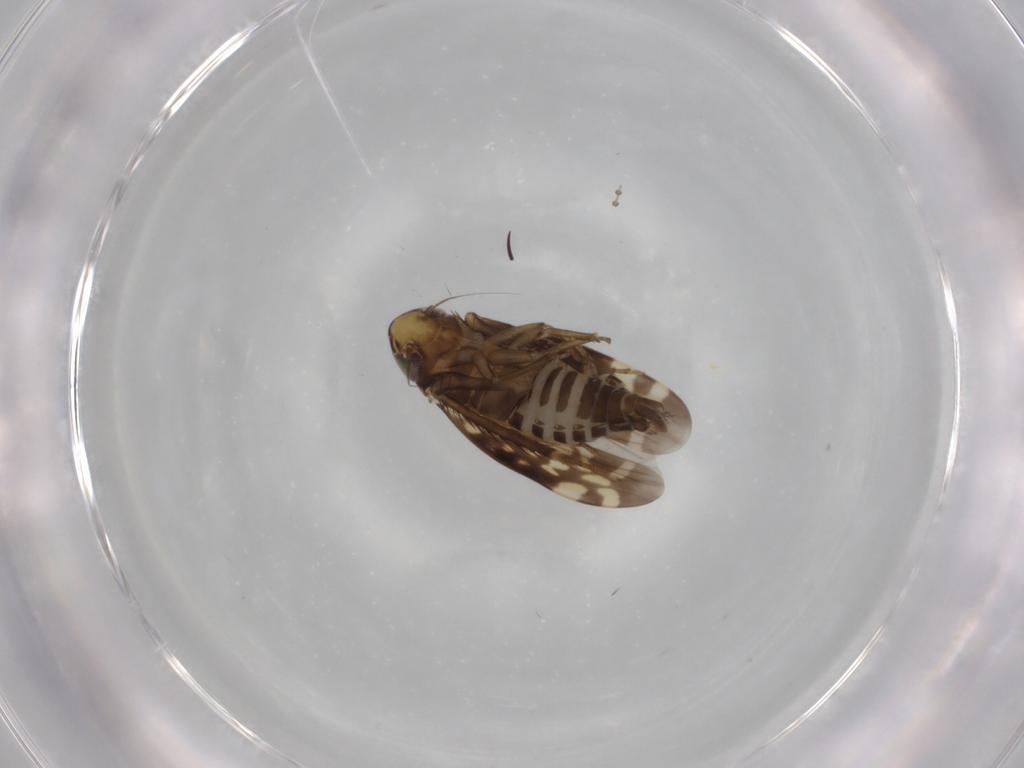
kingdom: Animalia
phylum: Arthropoda
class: Insecta
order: Hemiptera
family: Cicadellidae
